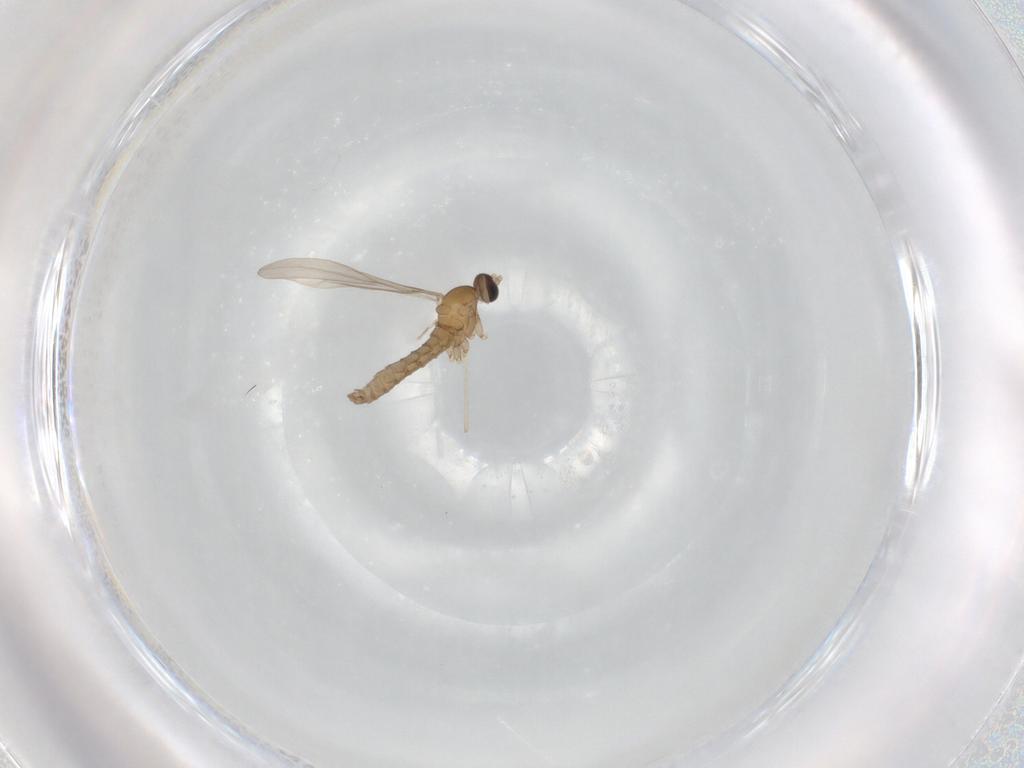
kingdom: Animalia
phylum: Arthropoda
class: Insecta
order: Diptera
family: Cecidomyiidae
